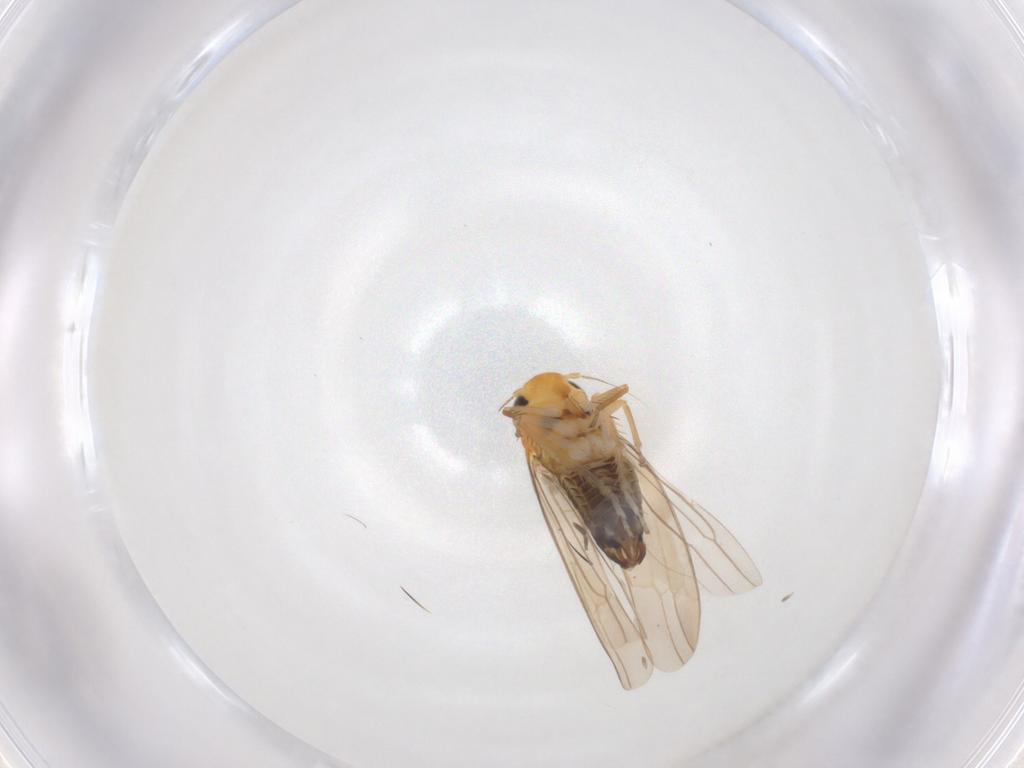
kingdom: Animalia
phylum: Arthropoda
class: Insecta
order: Hemiptera
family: Cicadellidae
